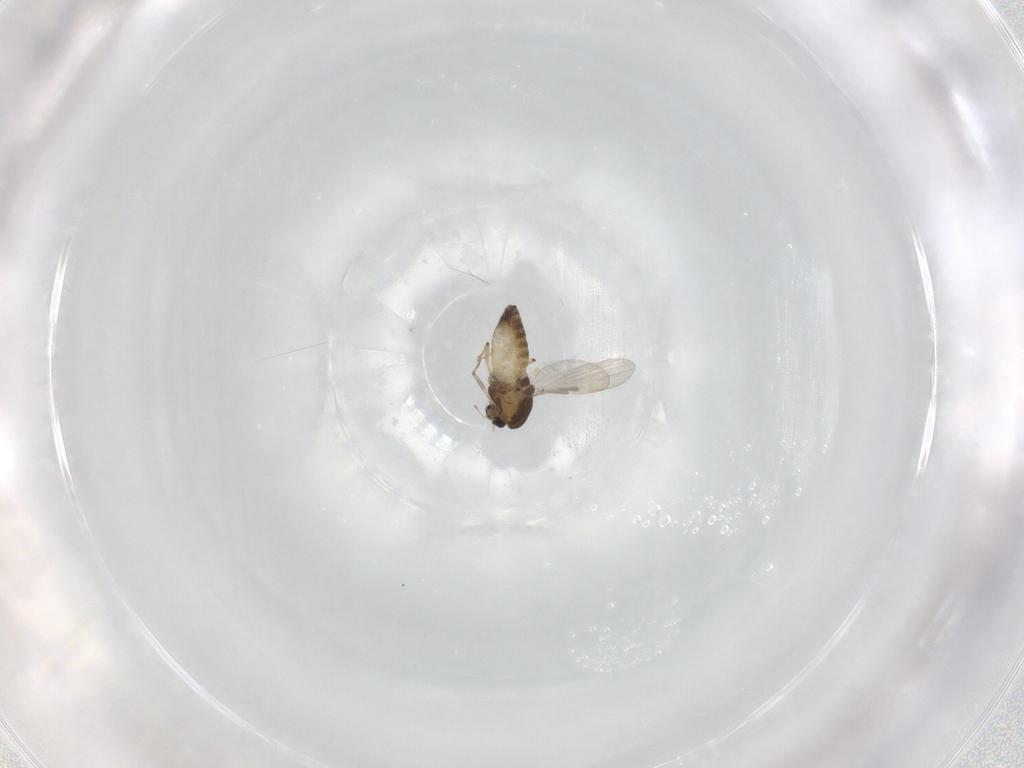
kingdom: Animalia
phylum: Arthropoda
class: Insecta
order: Diptera
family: Chironomidae
